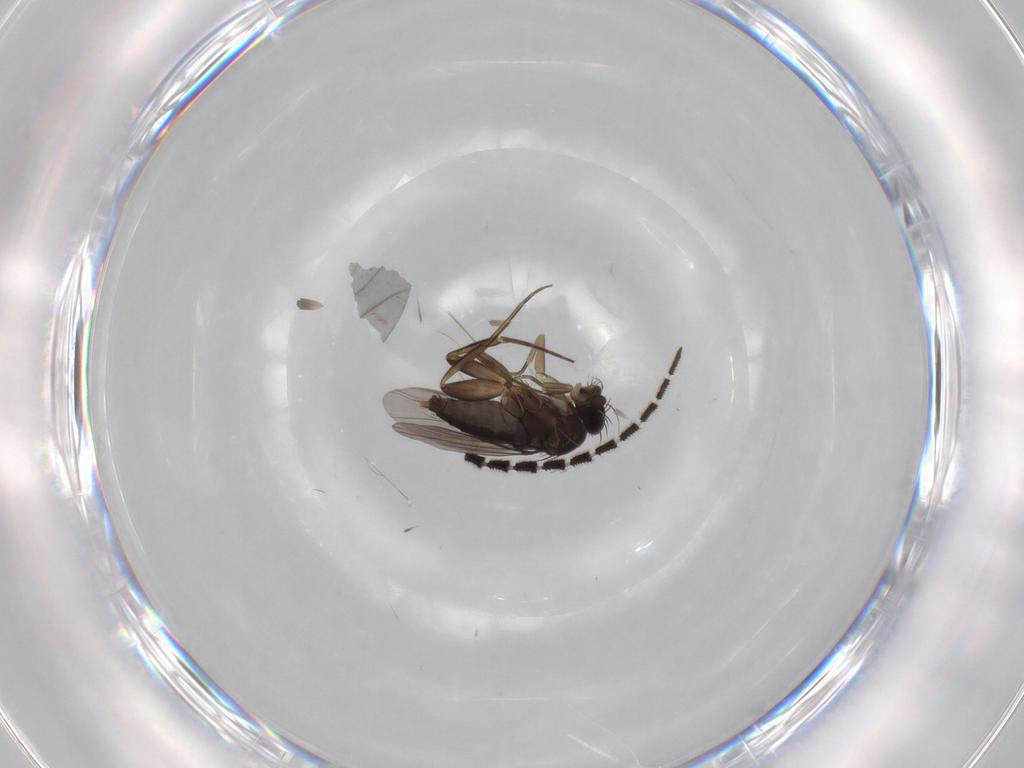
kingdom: Animalia
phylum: Arthropoda
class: Insecta
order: Diptera
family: Phoridae
